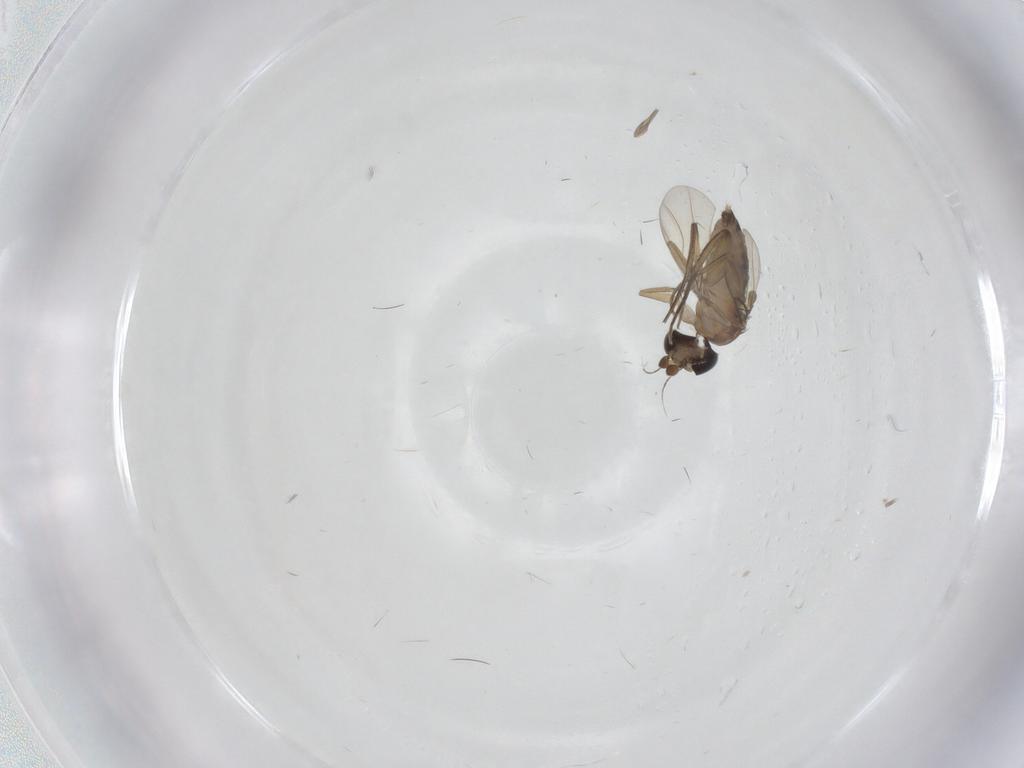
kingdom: Animalia
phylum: Arthropoda
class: Insecta
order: Diptera
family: Phoridae
